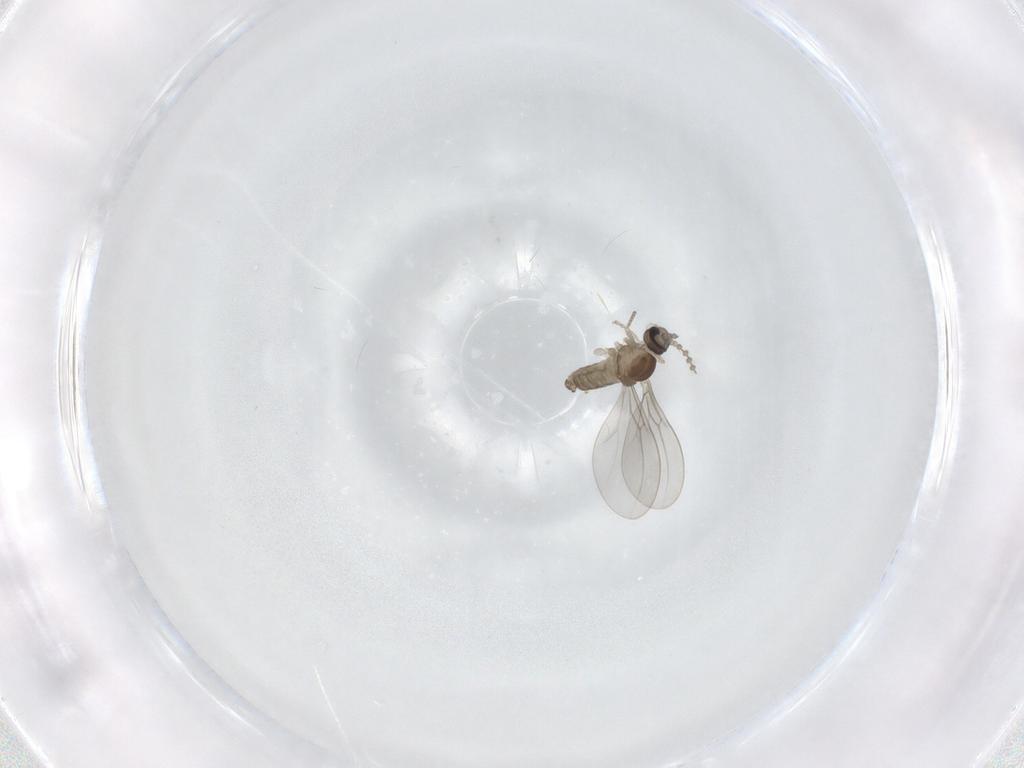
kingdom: Animalia
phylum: Arthropoda
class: Insecta
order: Diptera
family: Cecidomyiidae
